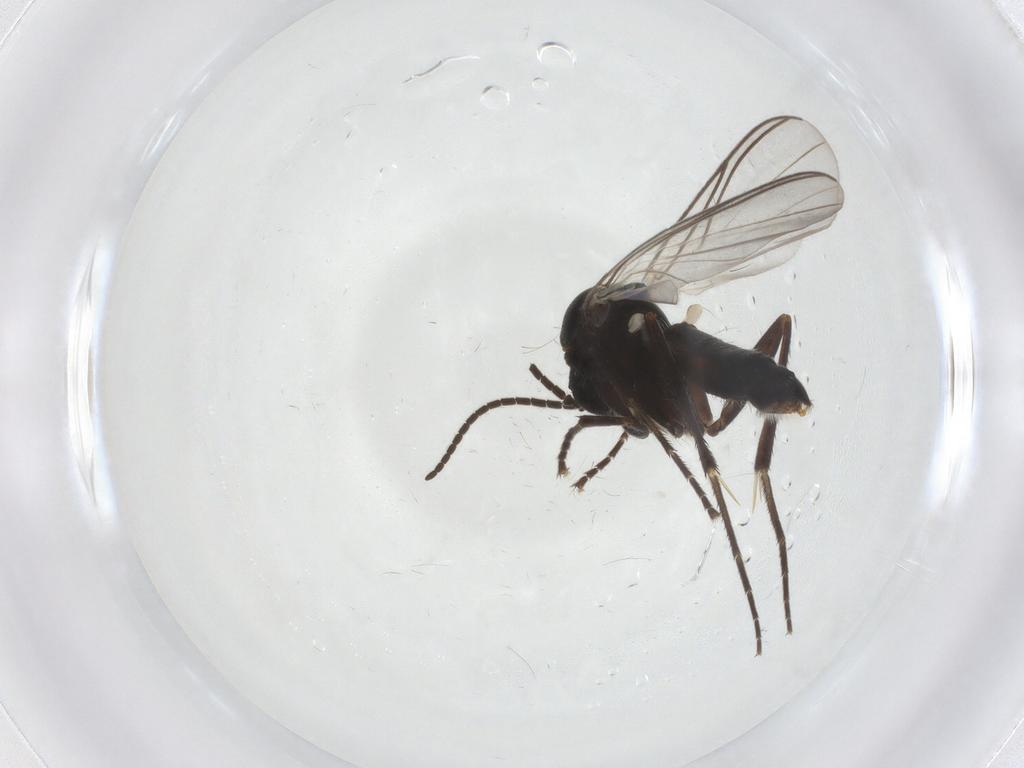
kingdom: Animalia
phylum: Arthropoda
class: Insecta
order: Diptera
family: Mycetophilidae
